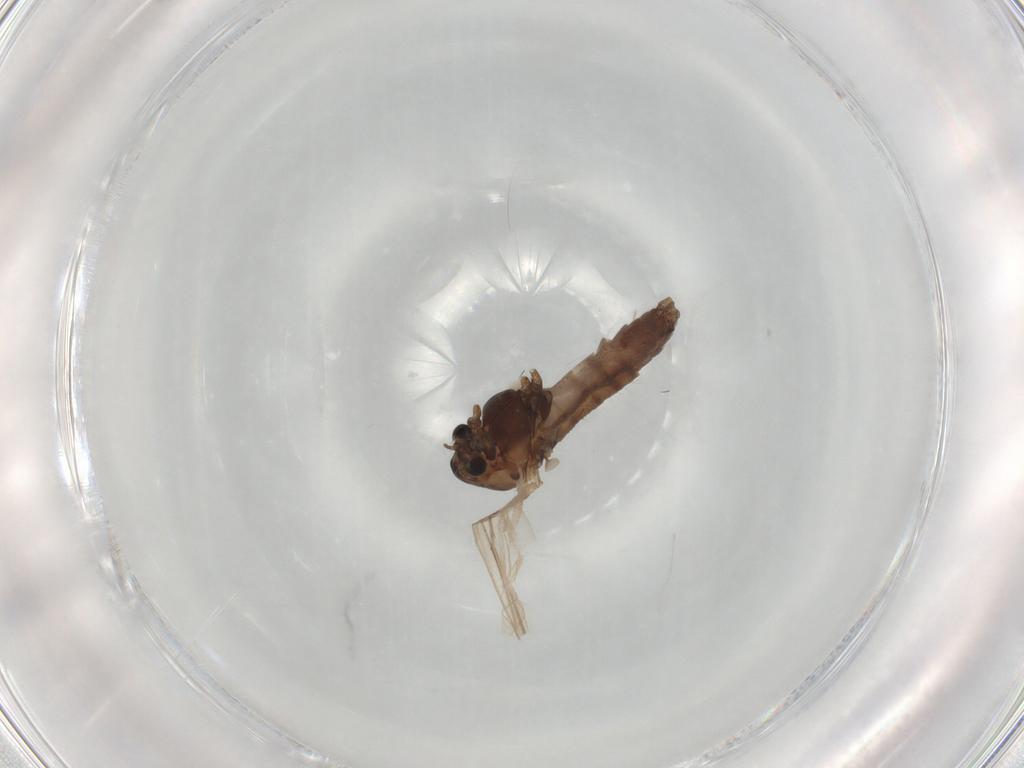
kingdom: Animalia
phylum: Arthropoda
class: Insecta
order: Diptera
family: Chironomidae
